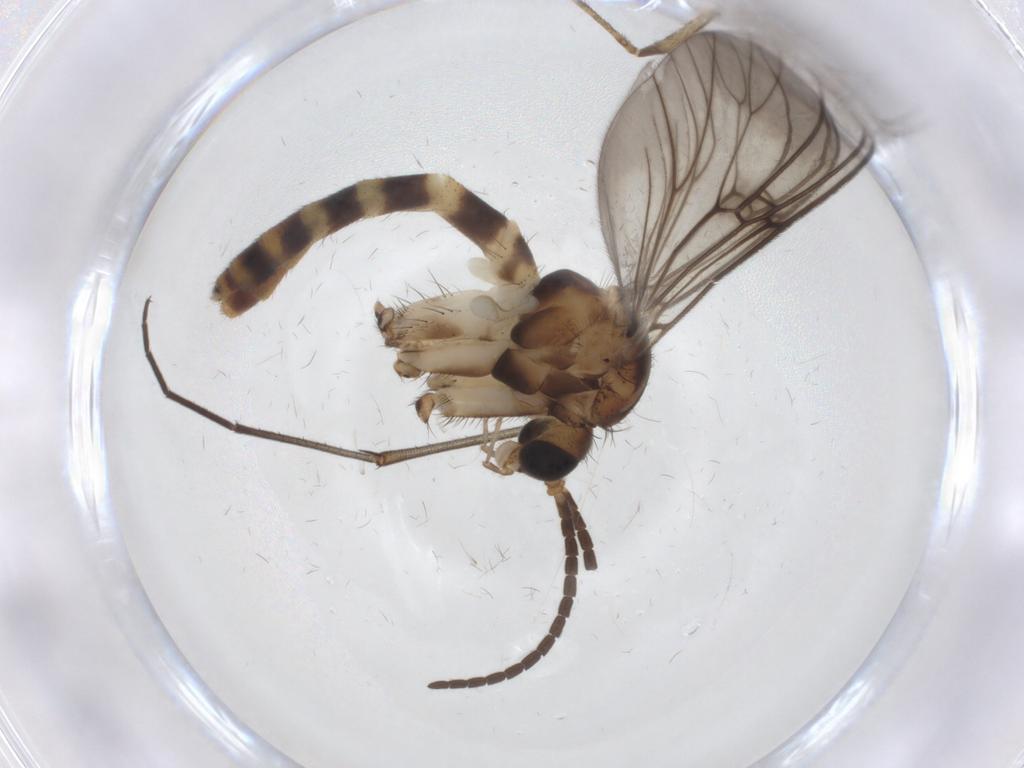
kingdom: Animalia
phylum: Arthropoda
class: Insecta
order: Diptera
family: Mycetophilidae
